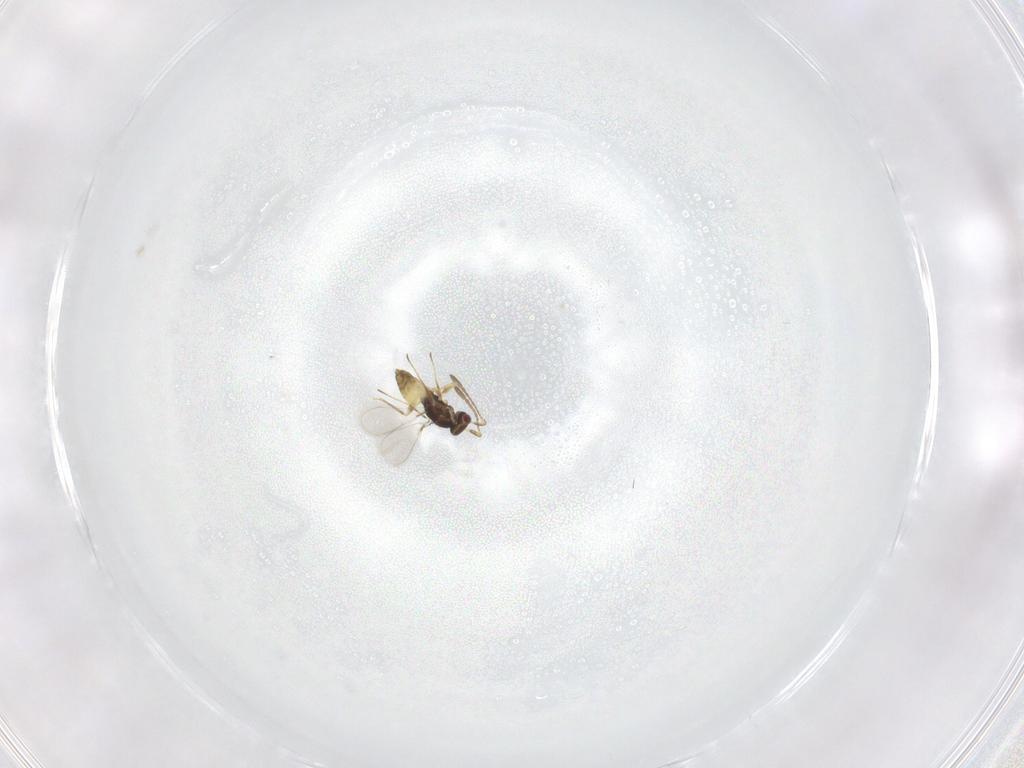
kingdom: Animalia
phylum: Arthropoda
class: Insecta
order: Hymenoptera
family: Mymaridae
